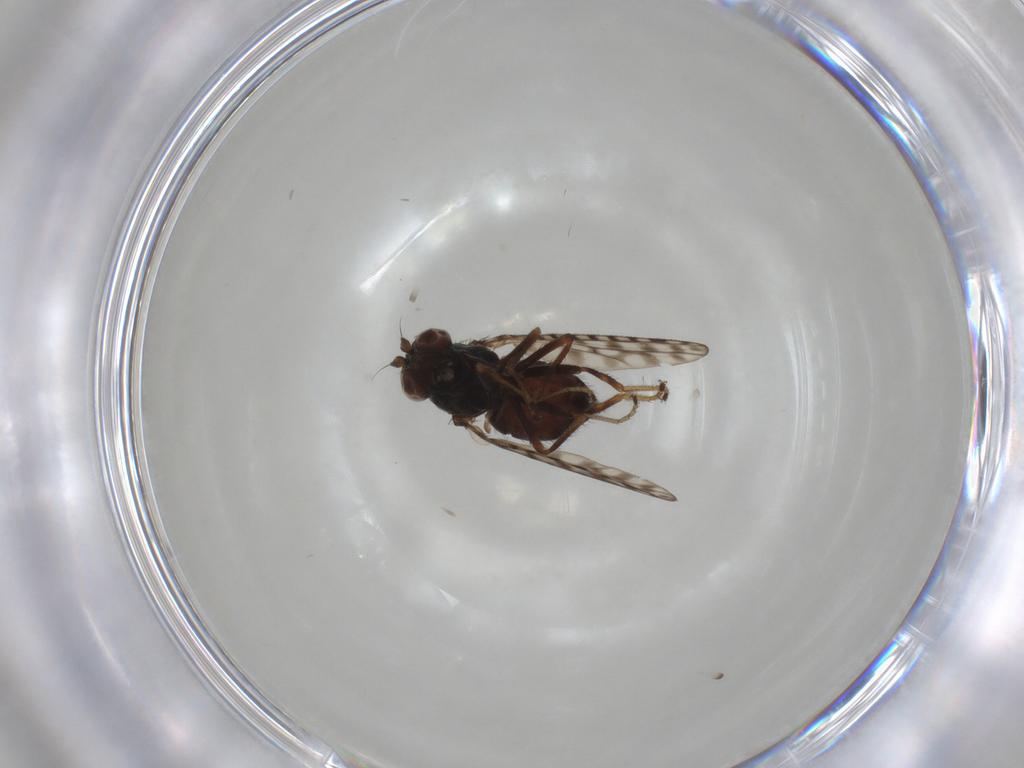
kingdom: Animalia
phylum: Arthropoda
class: Insecta
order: Diptera
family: Ephydridae
